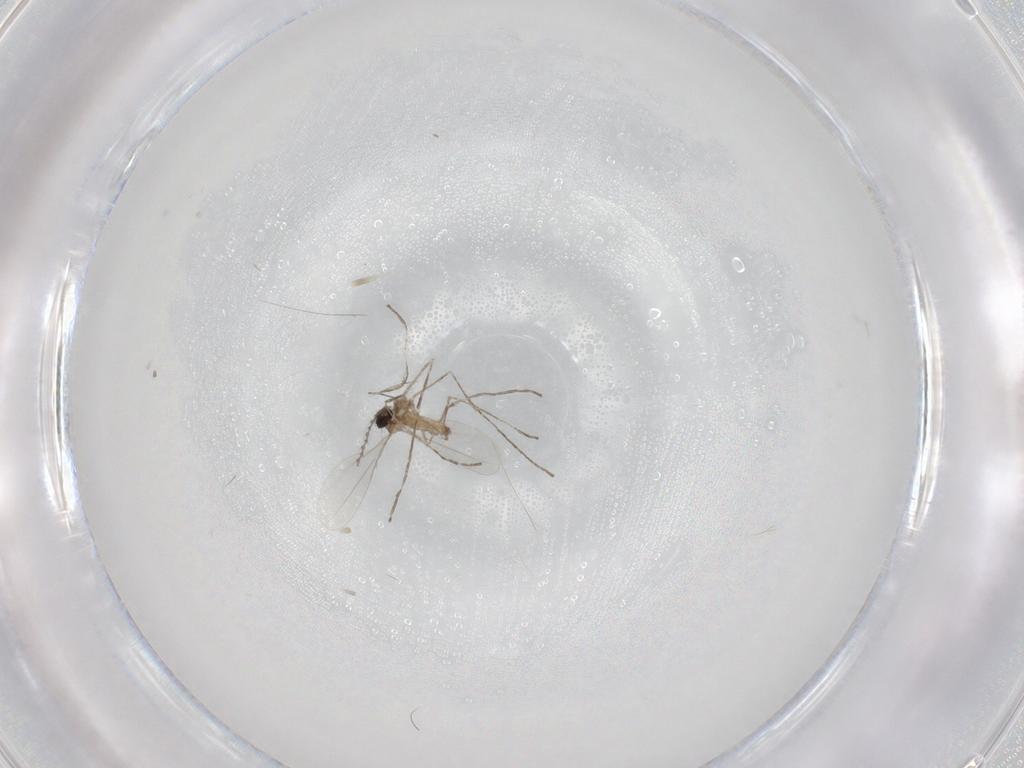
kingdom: Animalia
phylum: Arthropoda
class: Insecta
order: Diptera
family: Cecidomyiidae
